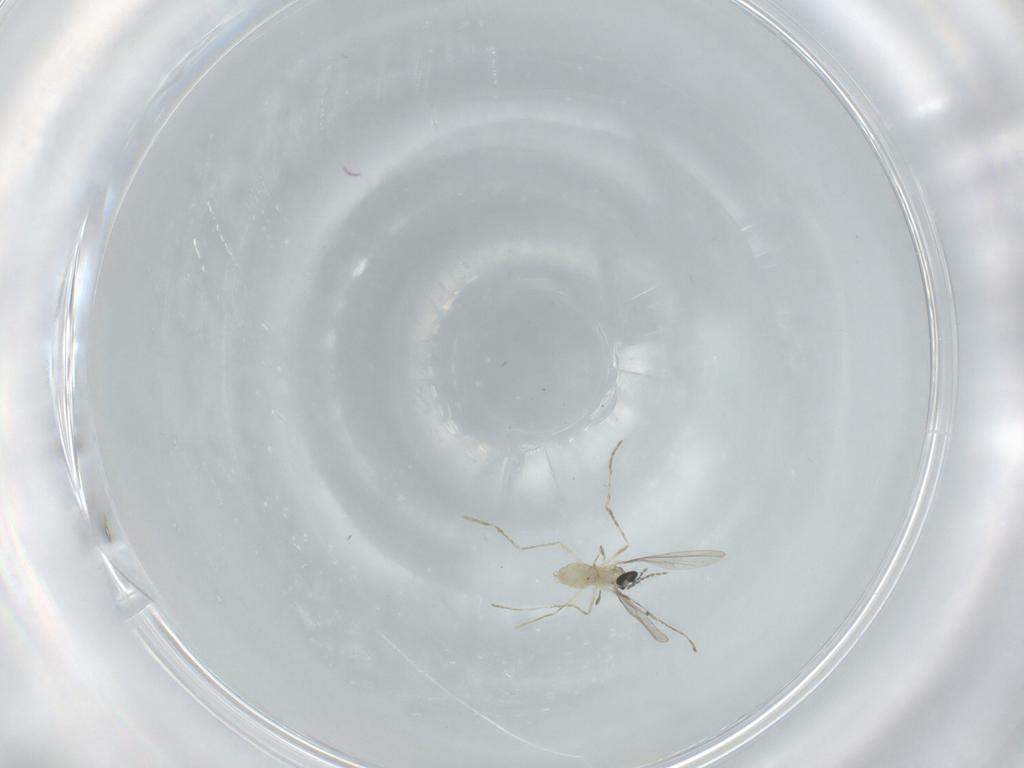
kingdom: Animalia
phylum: Arthropoda
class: Insecta
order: Diptera
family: Cecidomyiidae
